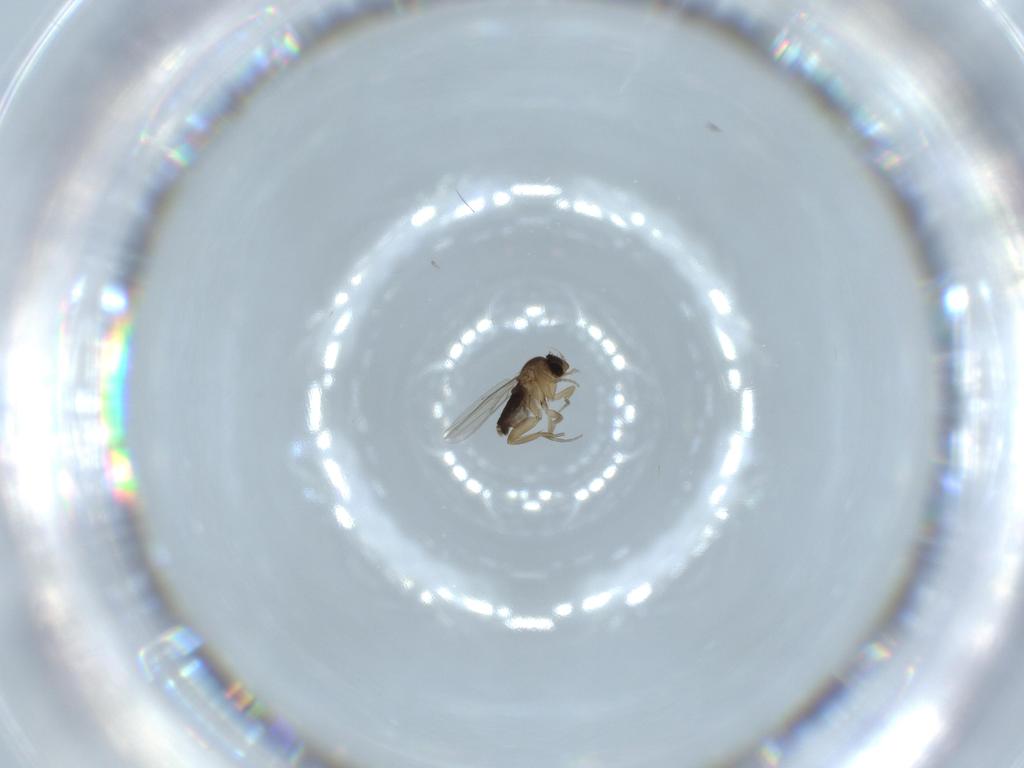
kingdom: Animalia
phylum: Arthropoda
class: Insecta
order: Diptera
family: Phoridae
